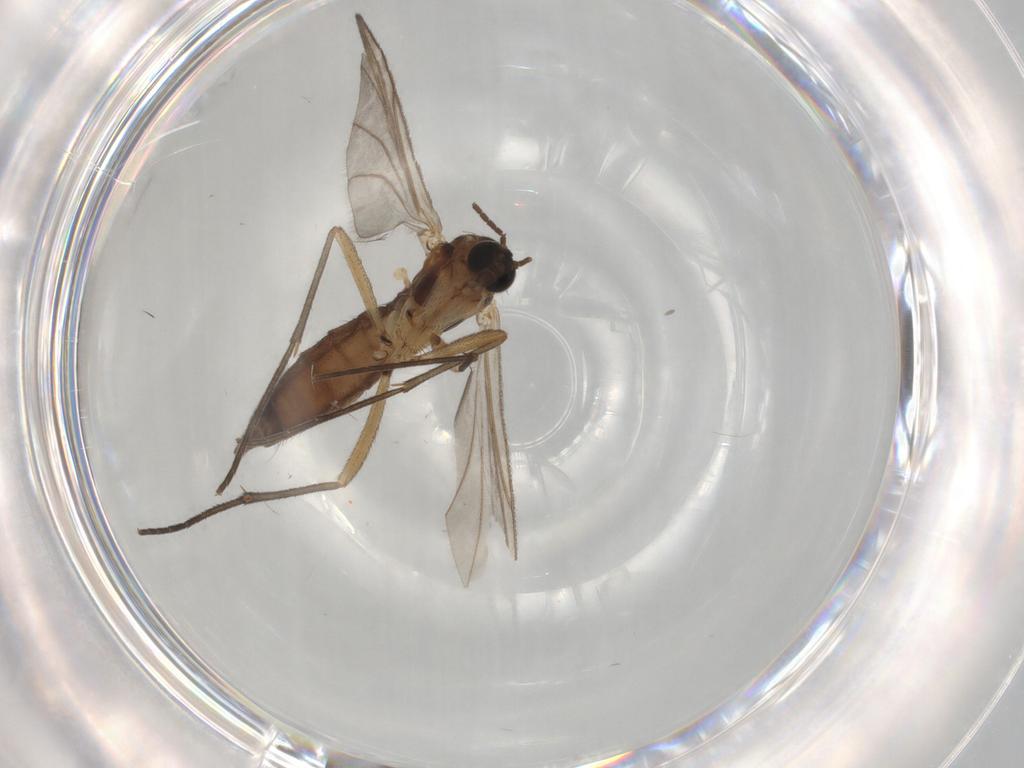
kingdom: Animalia
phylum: Arthropoda
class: Insecta
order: Diptera
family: Sciaridae
